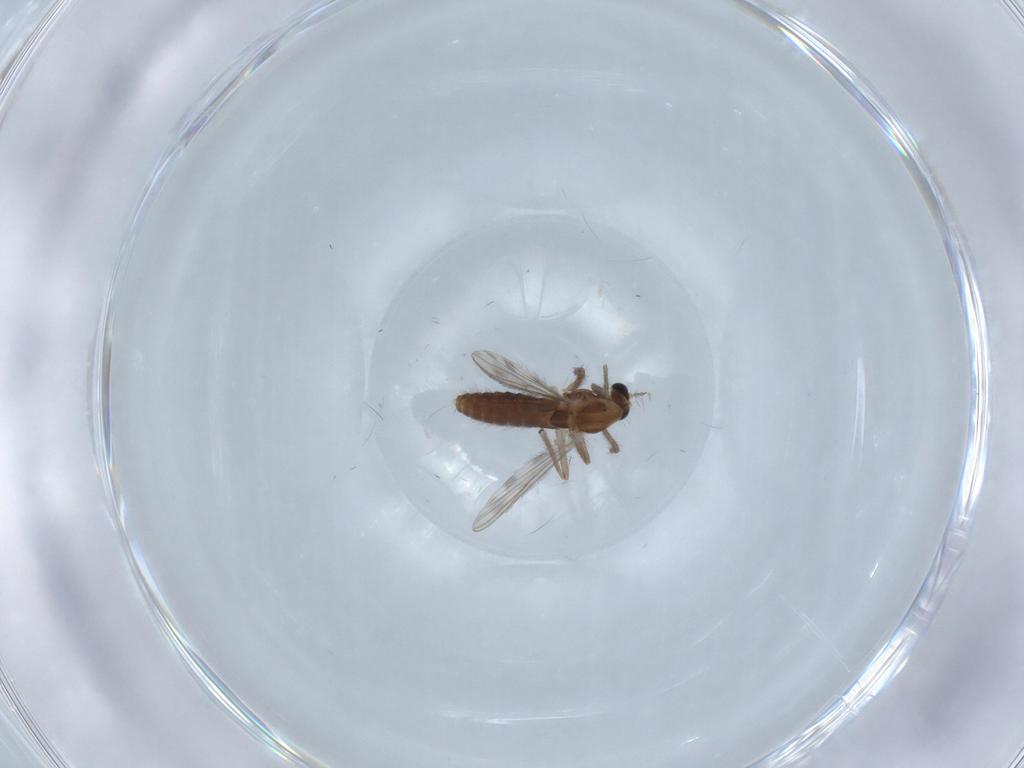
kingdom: Animalia
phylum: Arthropoda
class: Insecta
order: Diptera
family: Chironomidae
